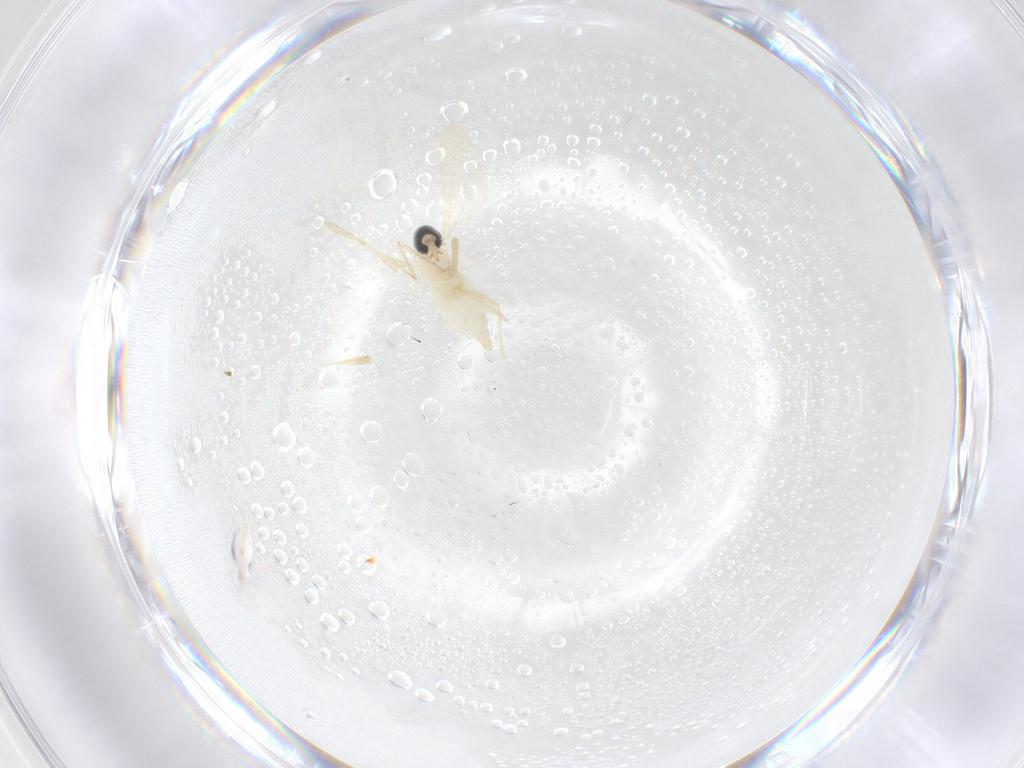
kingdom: Animalia
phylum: Arthropoda
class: Insecta
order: Diptera
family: Cecidomyiidae
